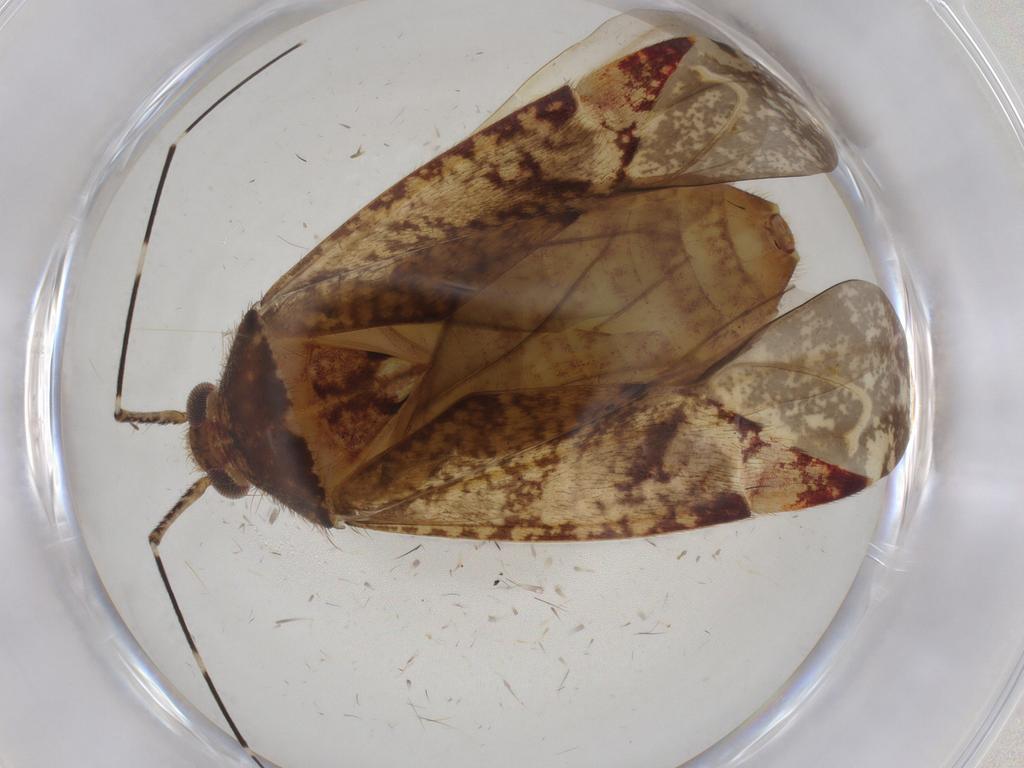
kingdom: Animalia
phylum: Arthropoda
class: Insecta
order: Hemiptera
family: Miridae
